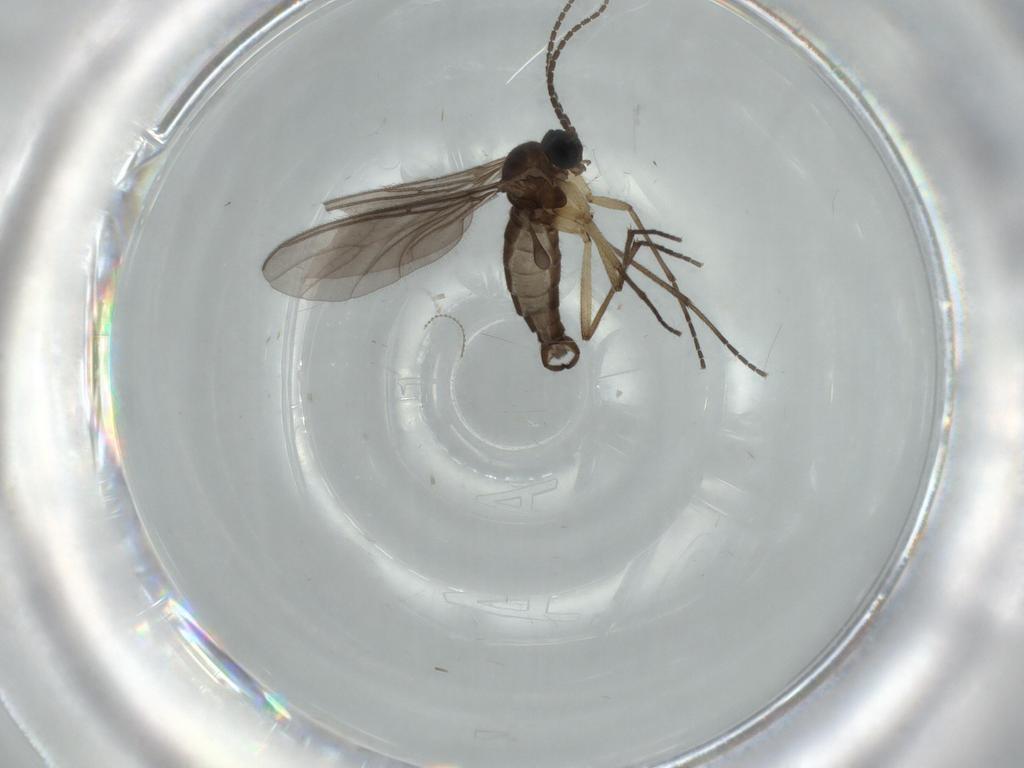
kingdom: Animalia
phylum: Arthropoda
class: Insecta
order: Diptera
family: Sciaridae
